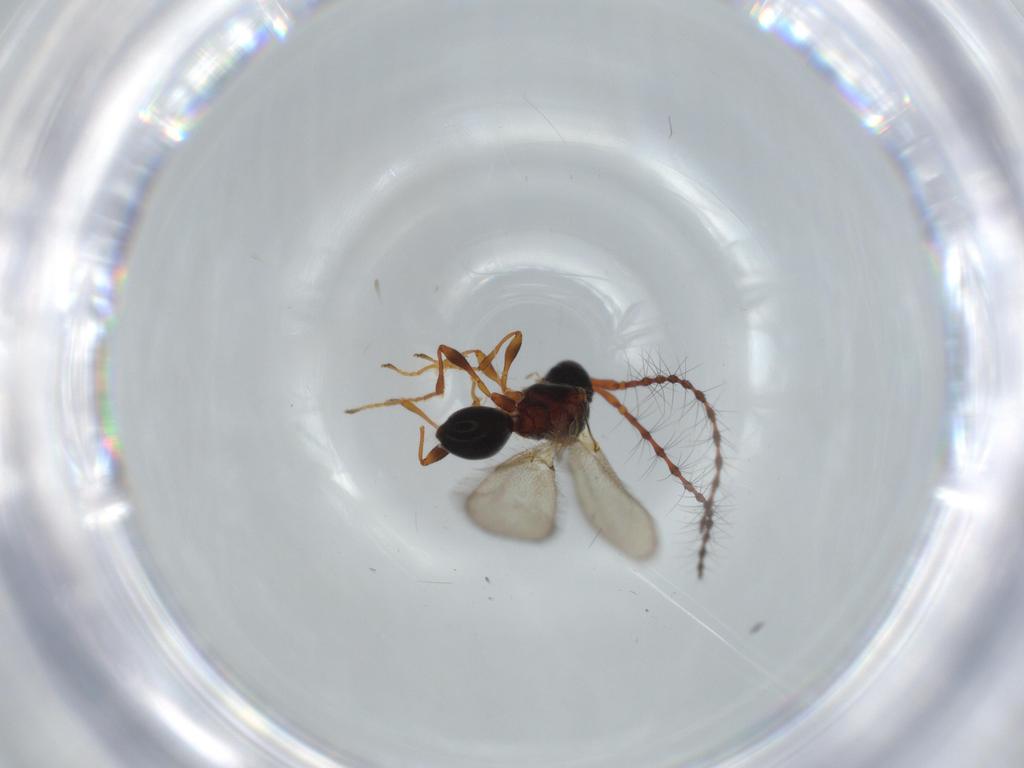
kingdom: Animalia
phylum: Arthropoda
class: Insecta
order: Hymenoptera
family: Diapriidae
